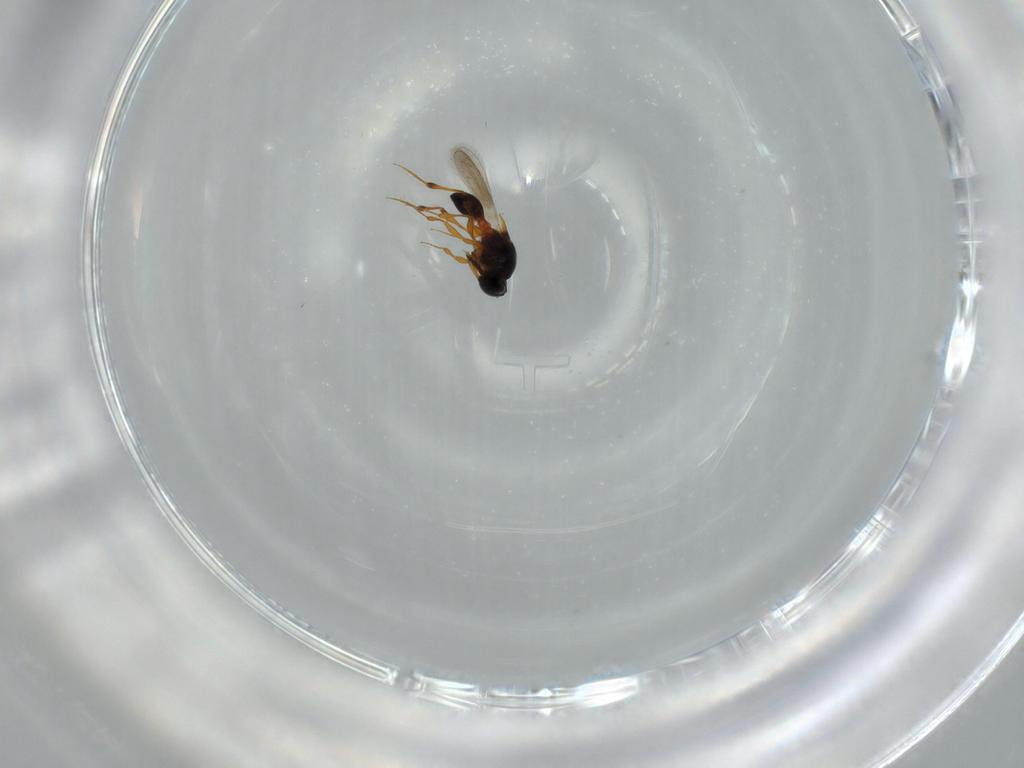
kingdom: Animalia
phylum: Arthropoda
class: Insecta
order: Hymenoptera
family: Platygastridae
